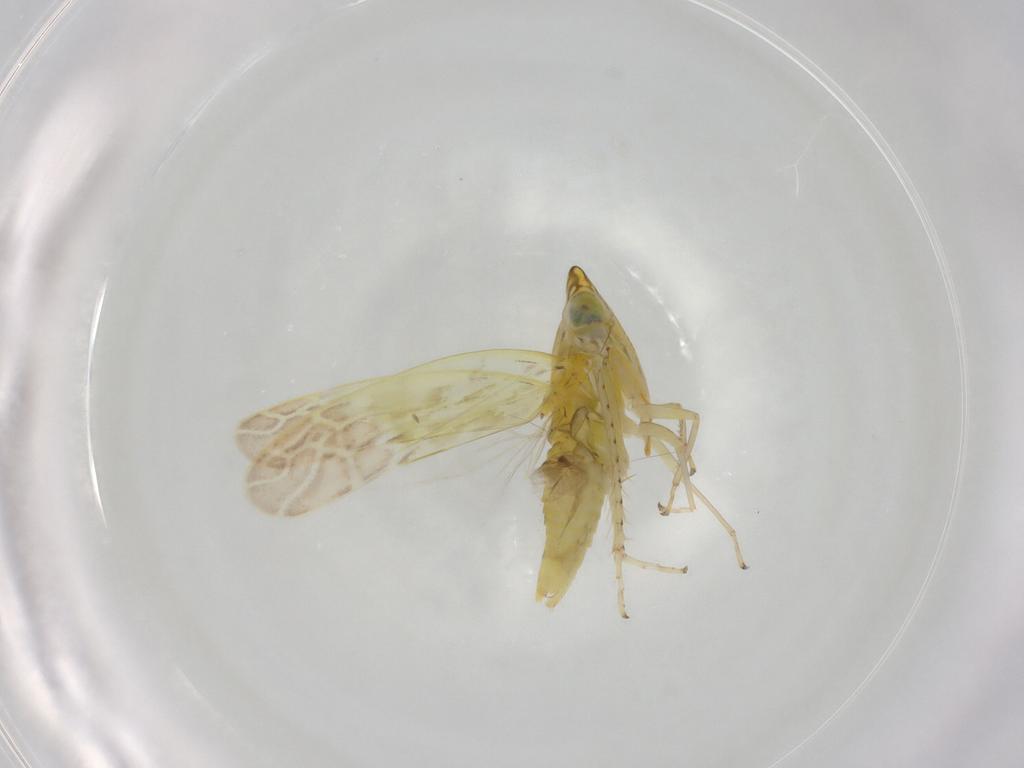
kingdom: Animalia
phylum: Arthropoda
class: Insecta
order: Hemiptera
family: Cicadellidae
